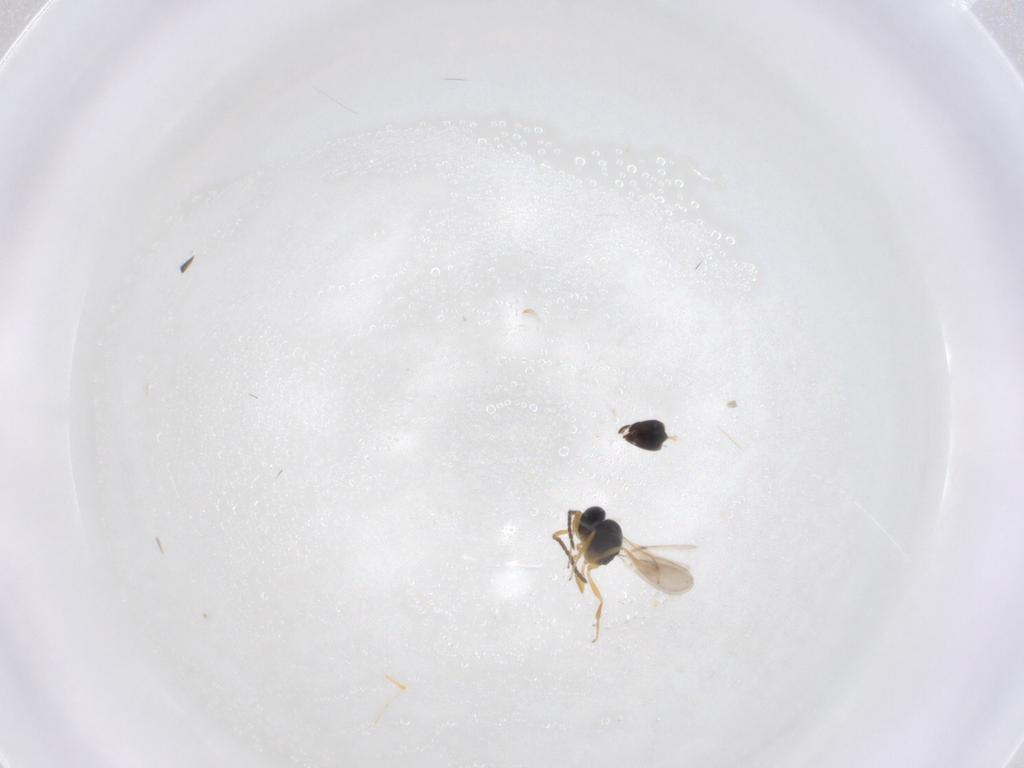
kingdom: Animalia
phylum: Arthropoda
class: Insecta
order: Hymenoptera
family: Scelionidae
